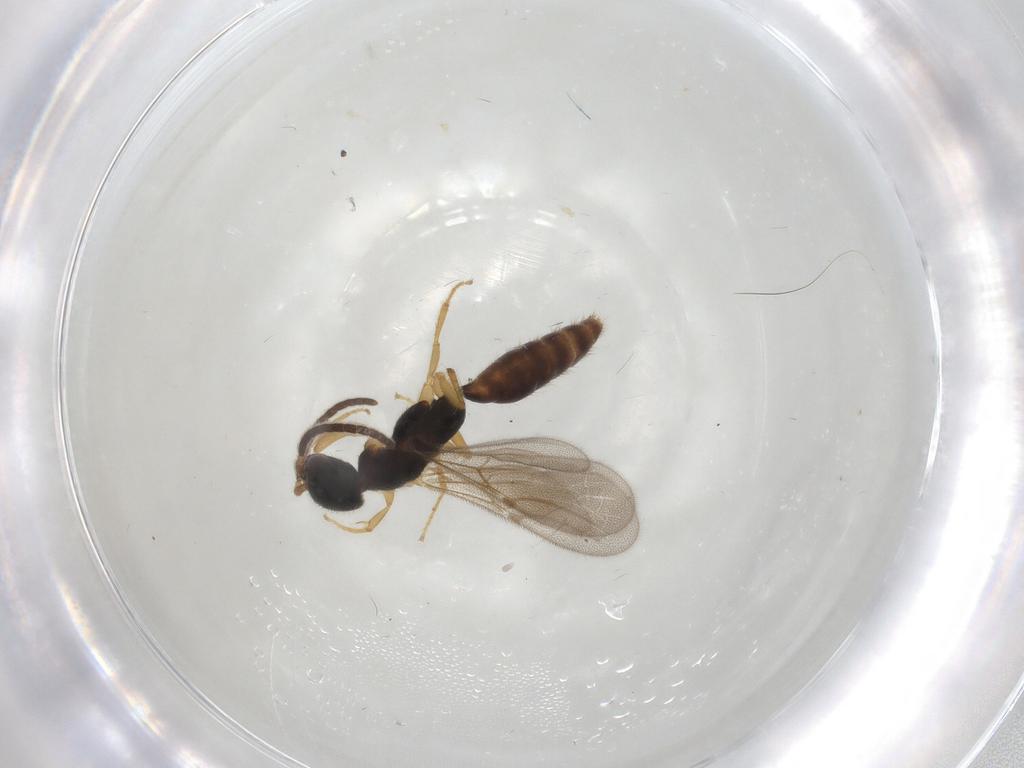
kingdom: Animalia
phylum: Arthropoda
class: Insecta
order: Hymenoptera
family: Bethylidae
